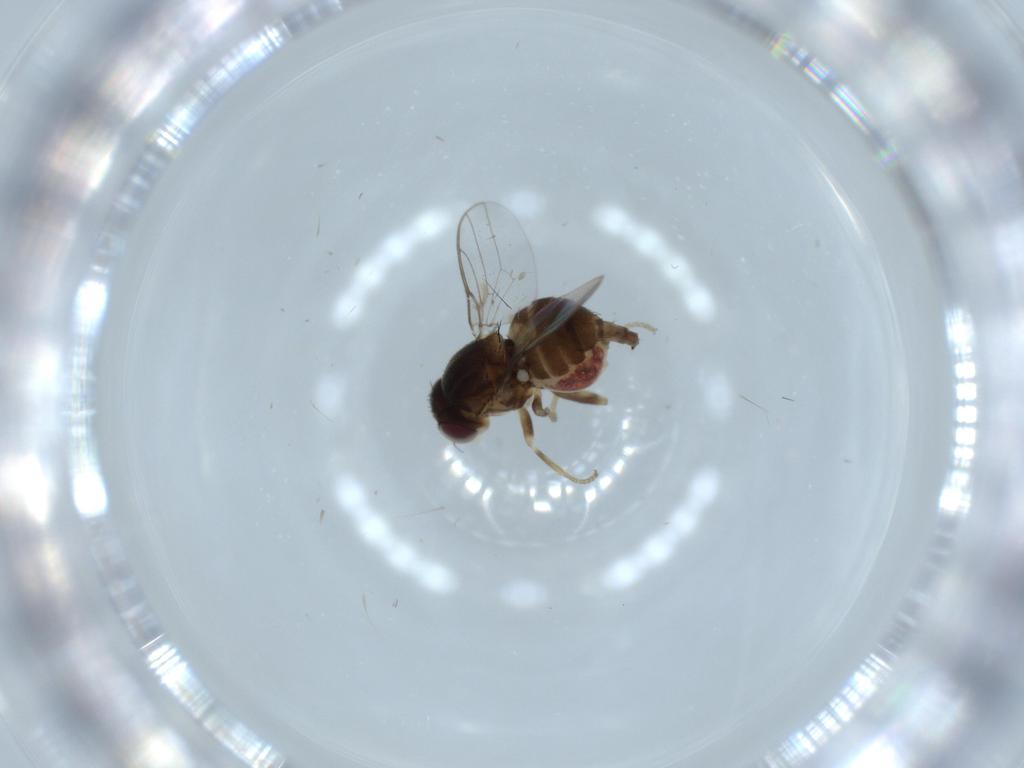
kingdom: Animalia
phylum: Arthropoda
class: Insecta
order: Diptera
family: Chloropidae
